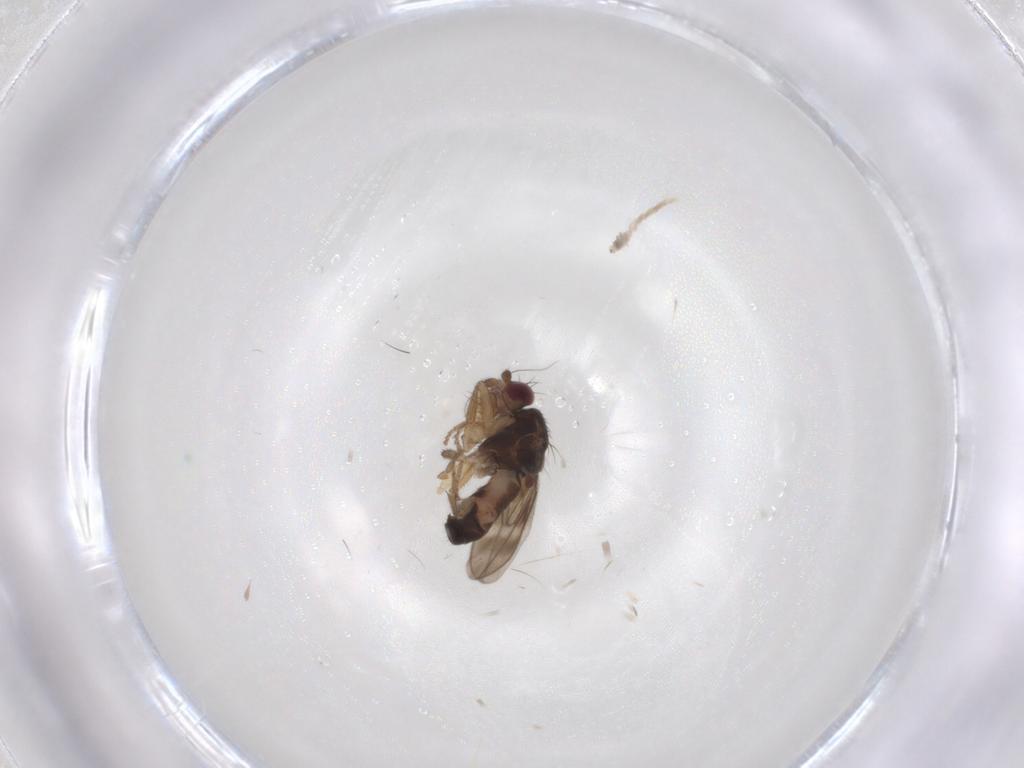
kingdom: Animalia
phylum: Arthropoda
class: Insecta
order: Diptera
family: Sphaeroceridae
